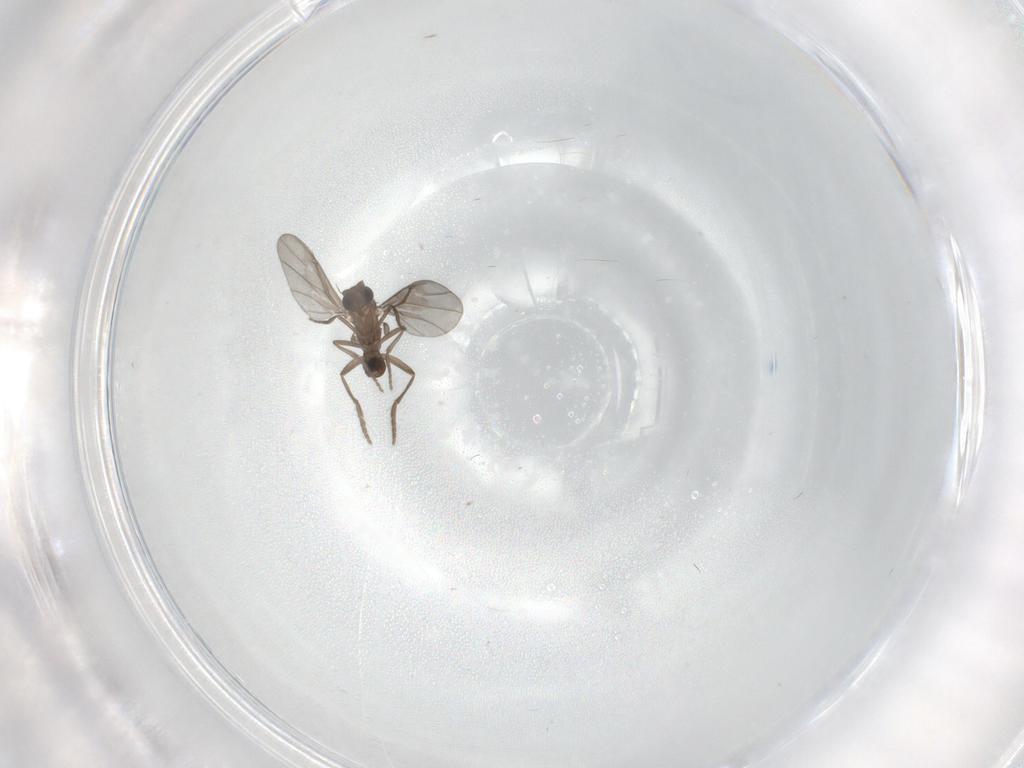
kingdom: Animalia
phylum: Arthropoda
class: Insecta
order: Diptera
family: Phoridae
